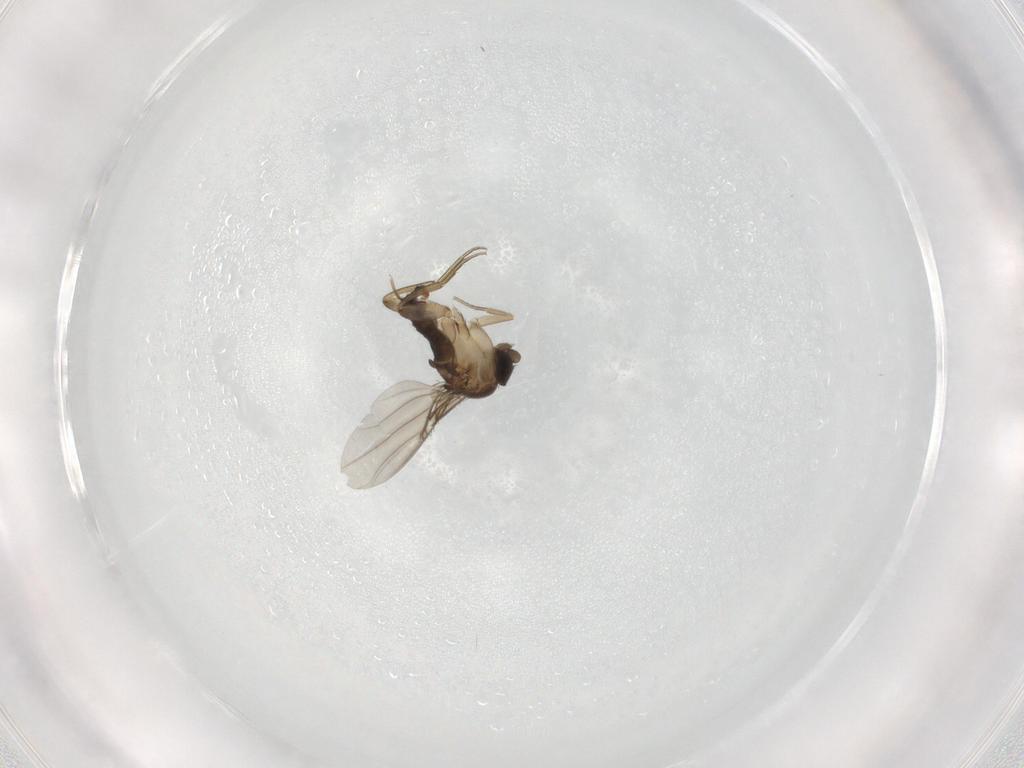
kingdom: Animalia
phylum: Arthropoda
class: Insecta
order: Diptera
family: Phoridae
